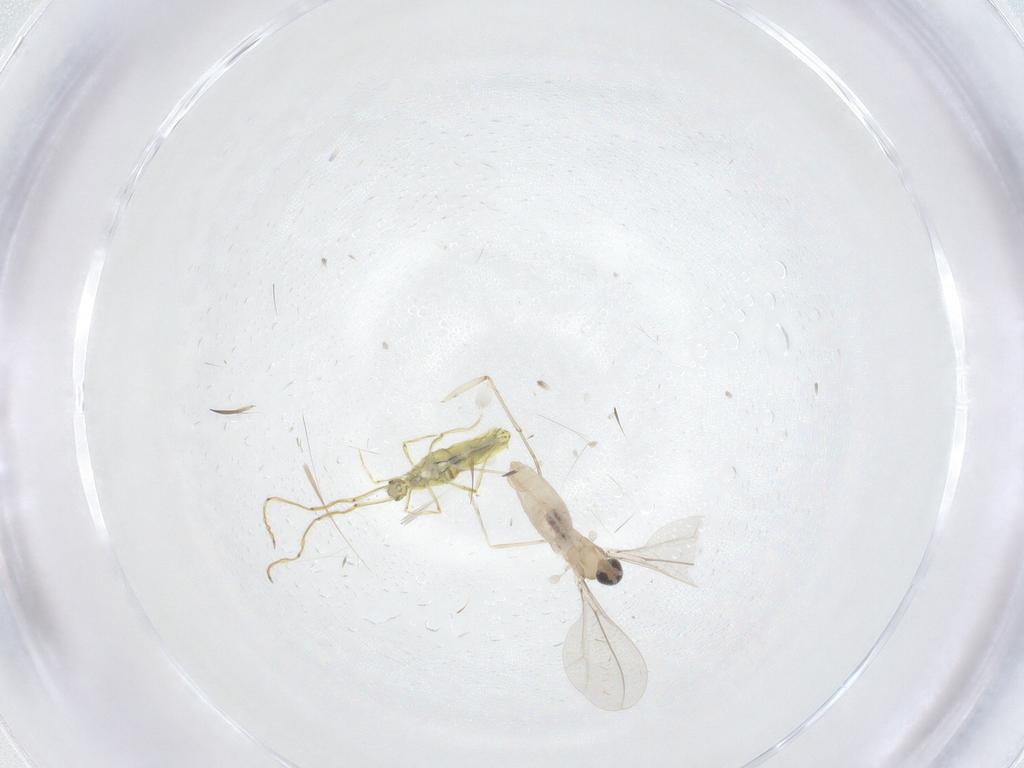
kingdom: Animalia
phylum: Arthropoda
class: Insecta
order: Diptera
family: Cecidomyiidae
